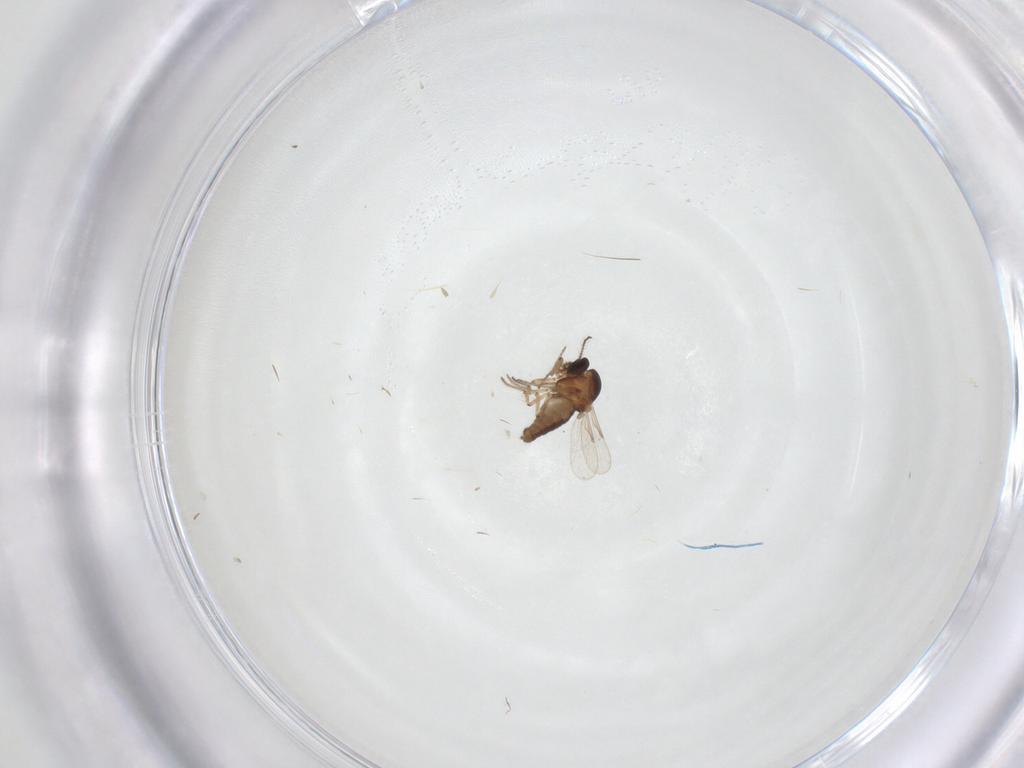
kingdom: Animalia
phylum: Arthropoda
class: Insecta
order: Diptera
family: Ceratopogonidae
